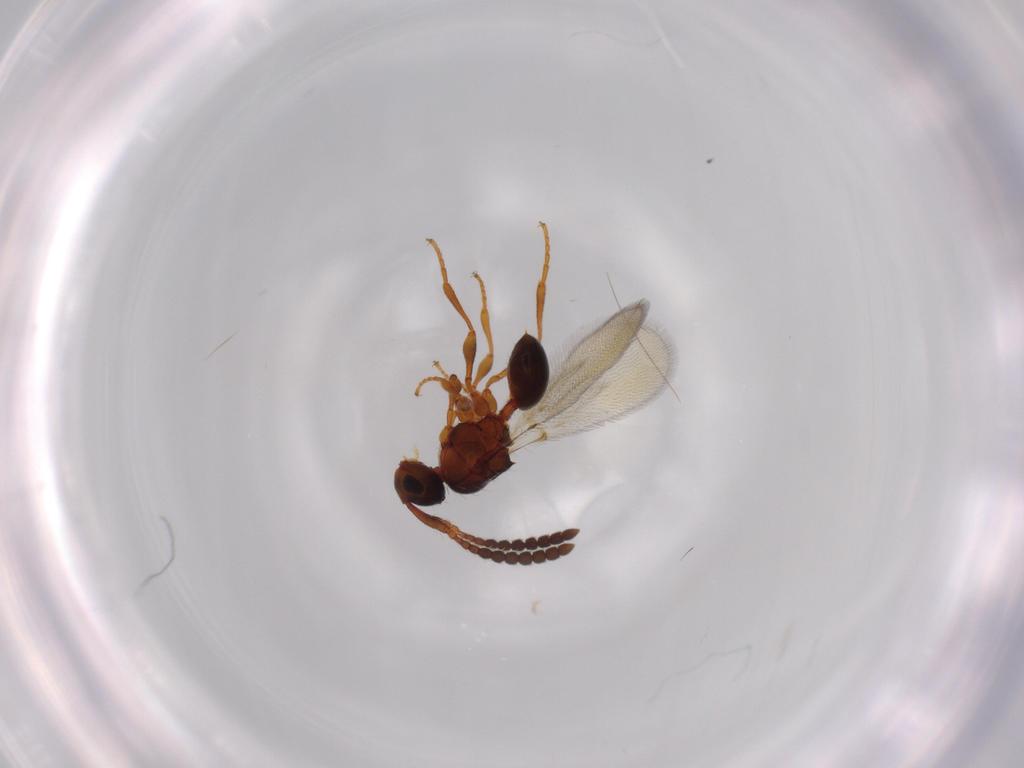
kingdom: Animalia
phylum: Arthropoda
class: Insecta
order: Hymenoptera
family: Diapriidae
